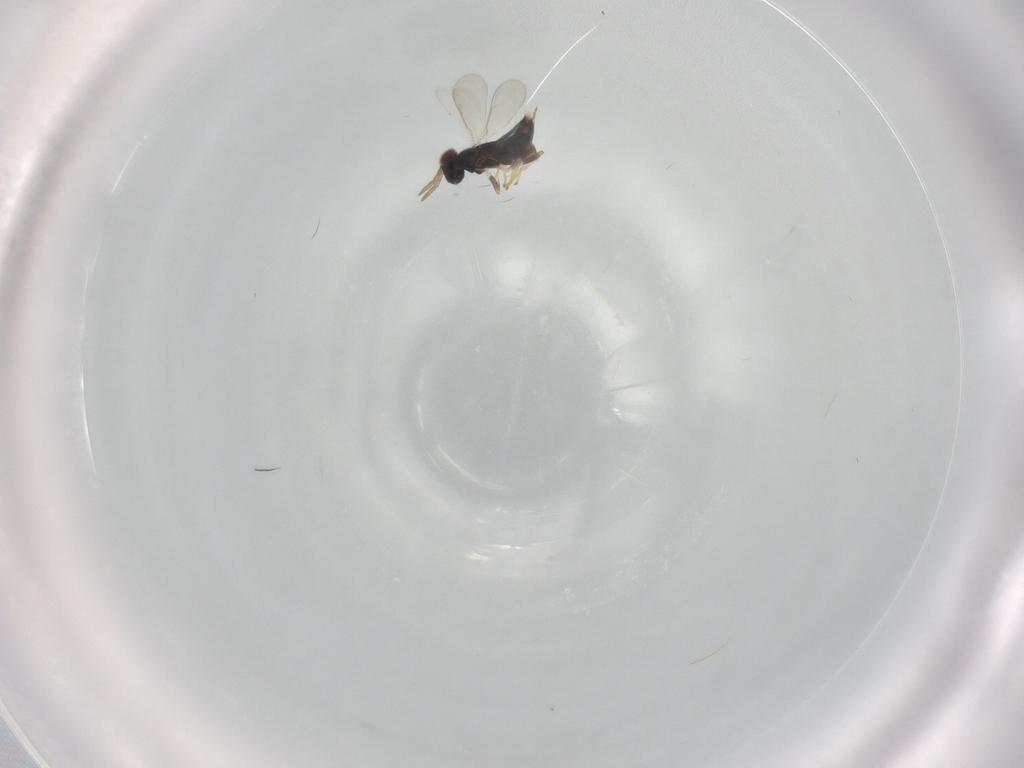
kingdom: Animalia
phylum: Arthropoda
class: Insecta
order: Hymenoptera
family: Aphelinidae
